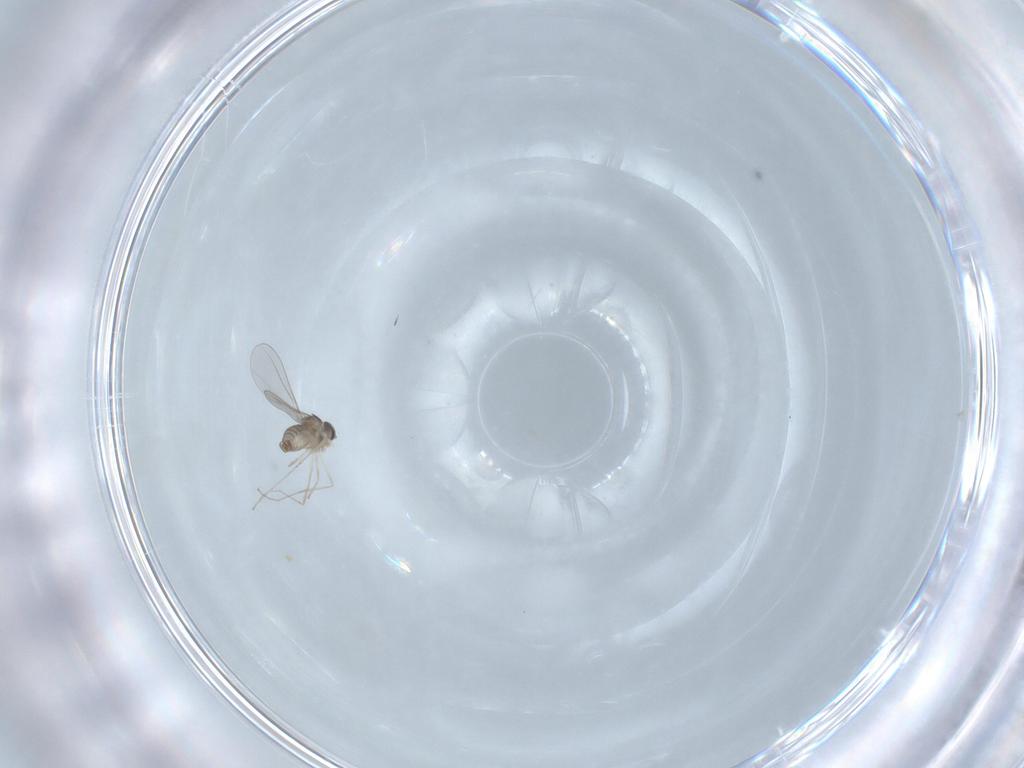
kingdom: Animalia
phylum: Arthropoda
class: Insecta
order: Diptera
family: Cecidomyiidae
